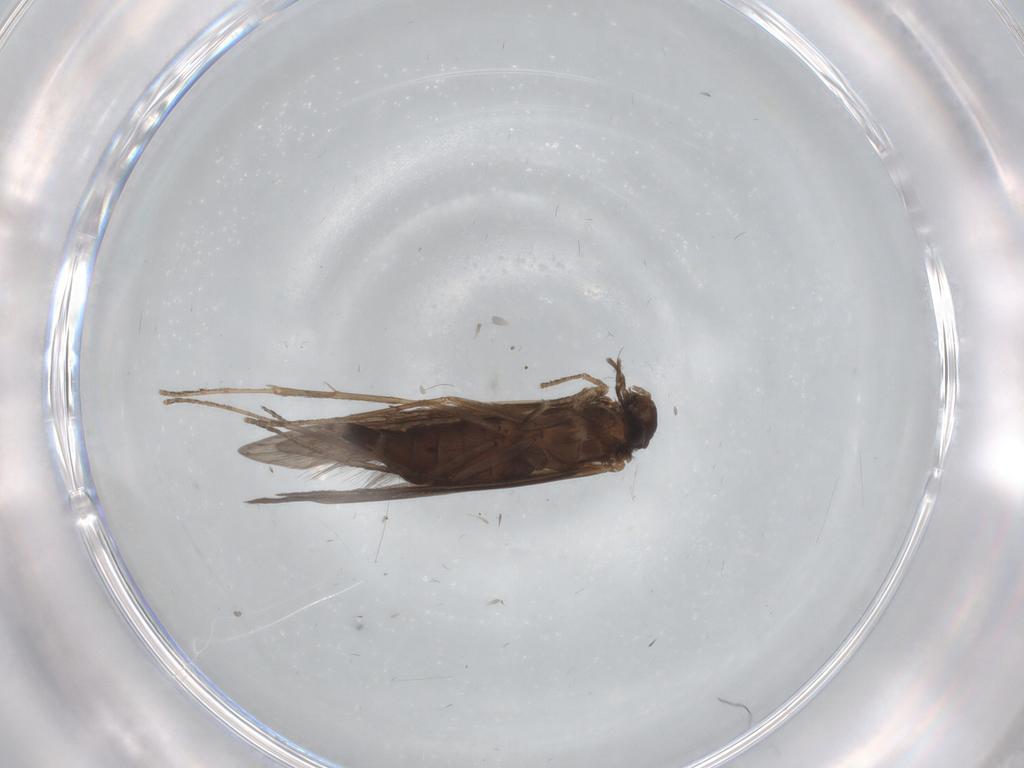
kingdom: Animalia
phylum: Arthropoda
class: Insecta
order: Trichoptera
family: Xiphocentronidae
